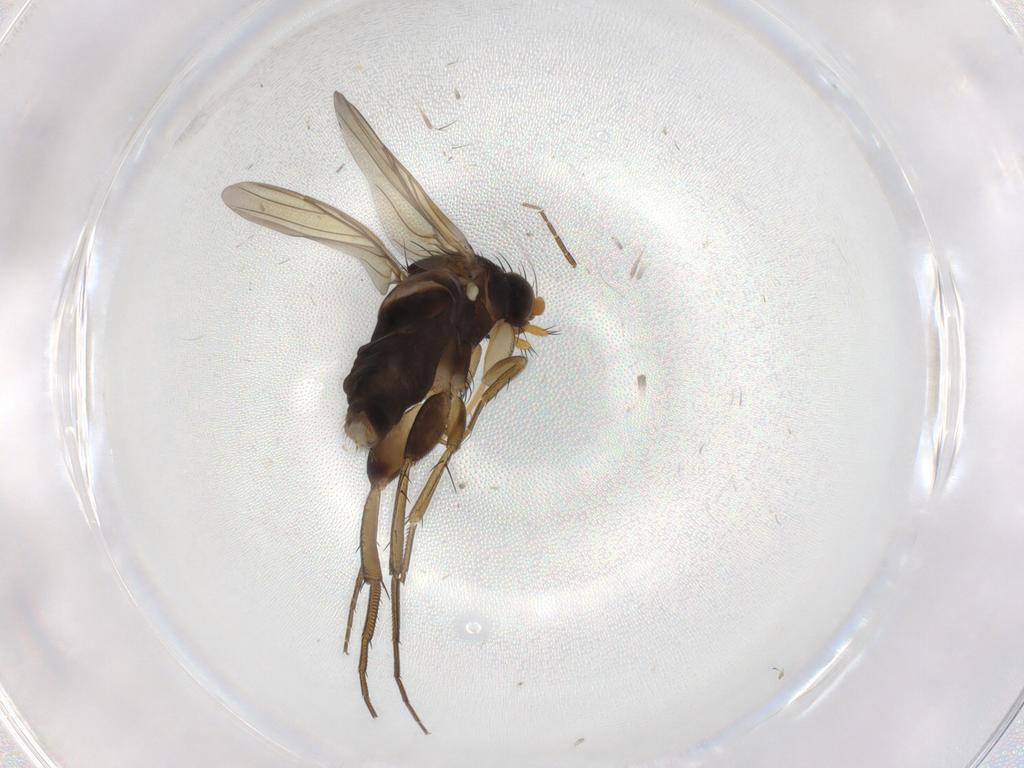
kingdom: Animalia
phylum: Arthropoda
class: Insecta
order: Diptera
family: Phoridae
